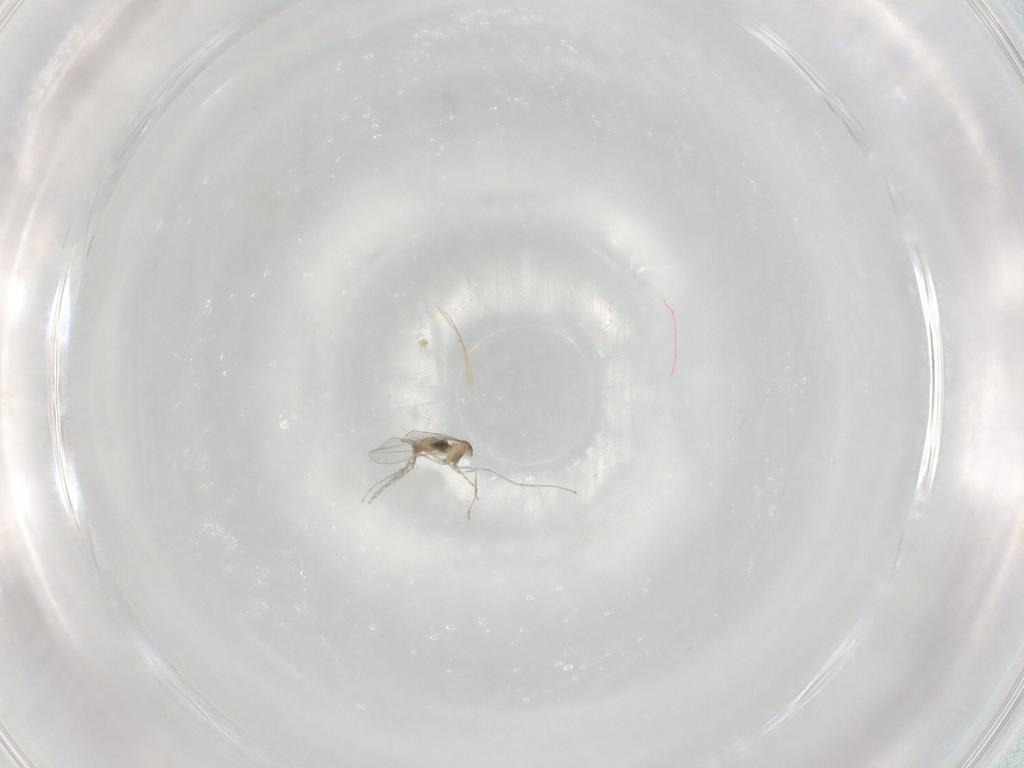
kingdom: Animalia
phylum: Arthropoda
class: Insecta
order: Diptera
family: Cecidomyiidae
